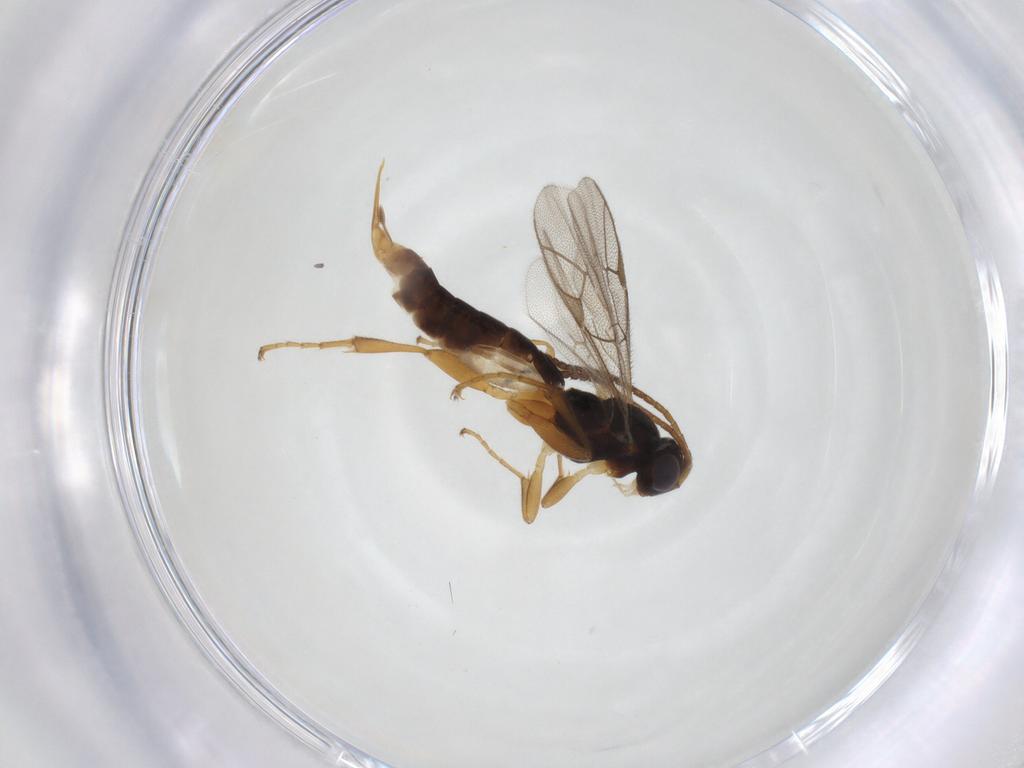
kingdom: Animalia
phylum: Arthropoda
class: Insecta
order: Hymenoptera
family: Ichneumonidae
